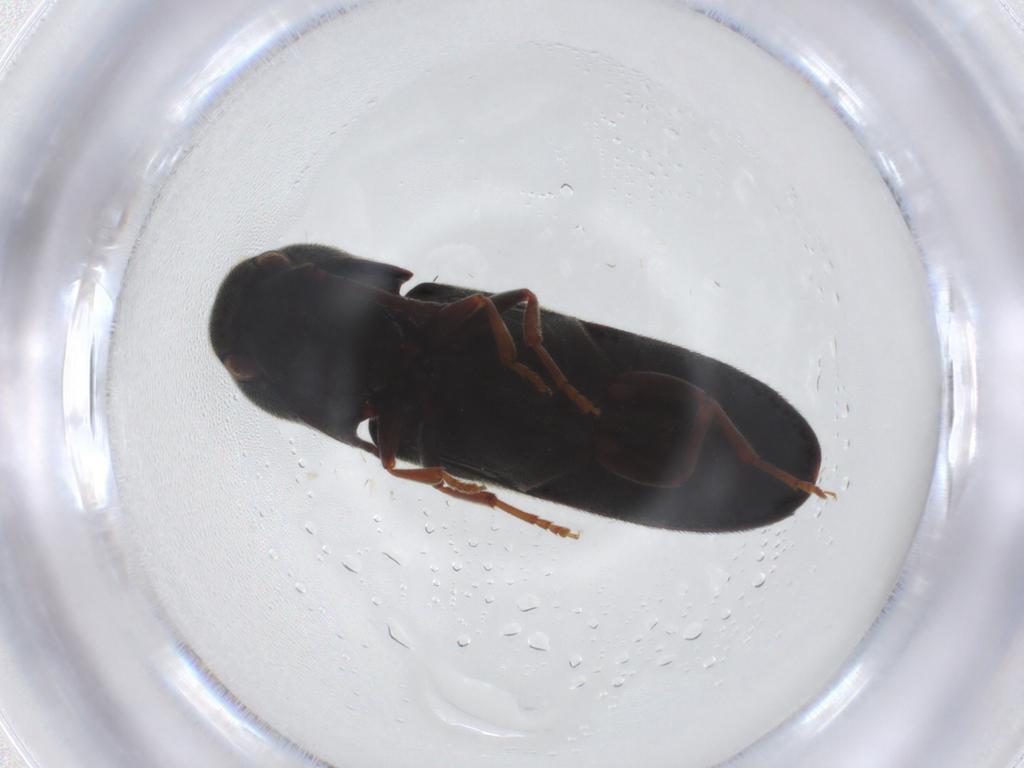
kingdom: Animalia
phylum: Arthropoda
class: Insecta
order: Coleoptera
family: Eucnemidae
